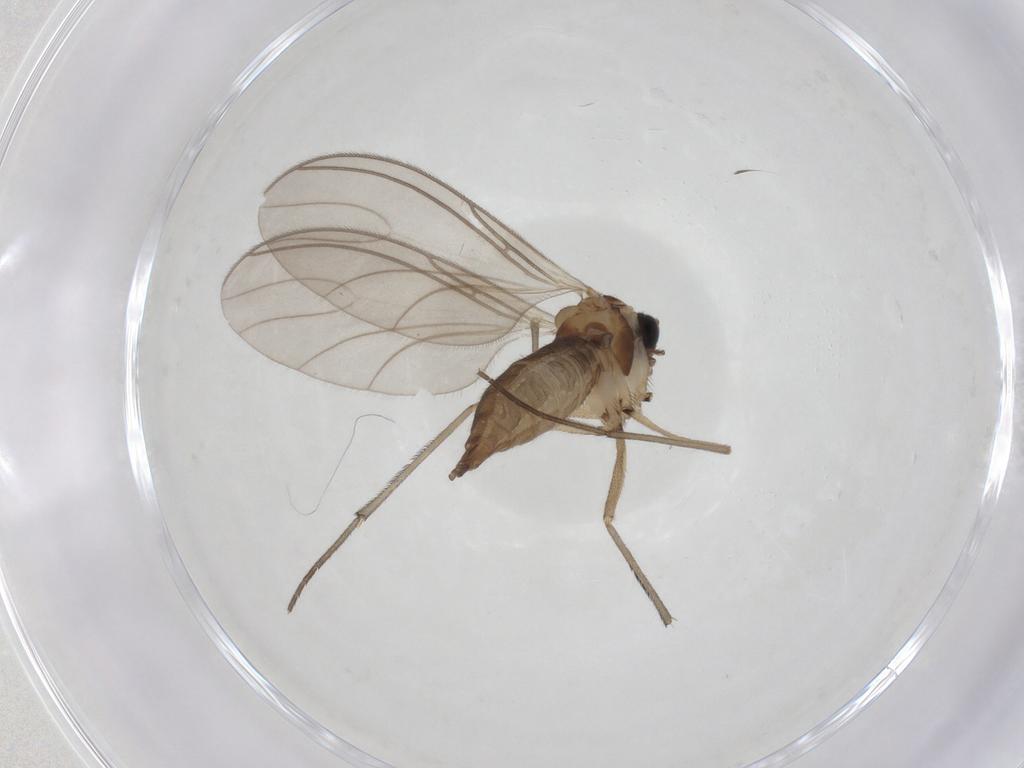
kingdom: Animalia
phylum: Arthropoda
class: Insecta
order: Diptera
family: Sciaridae
